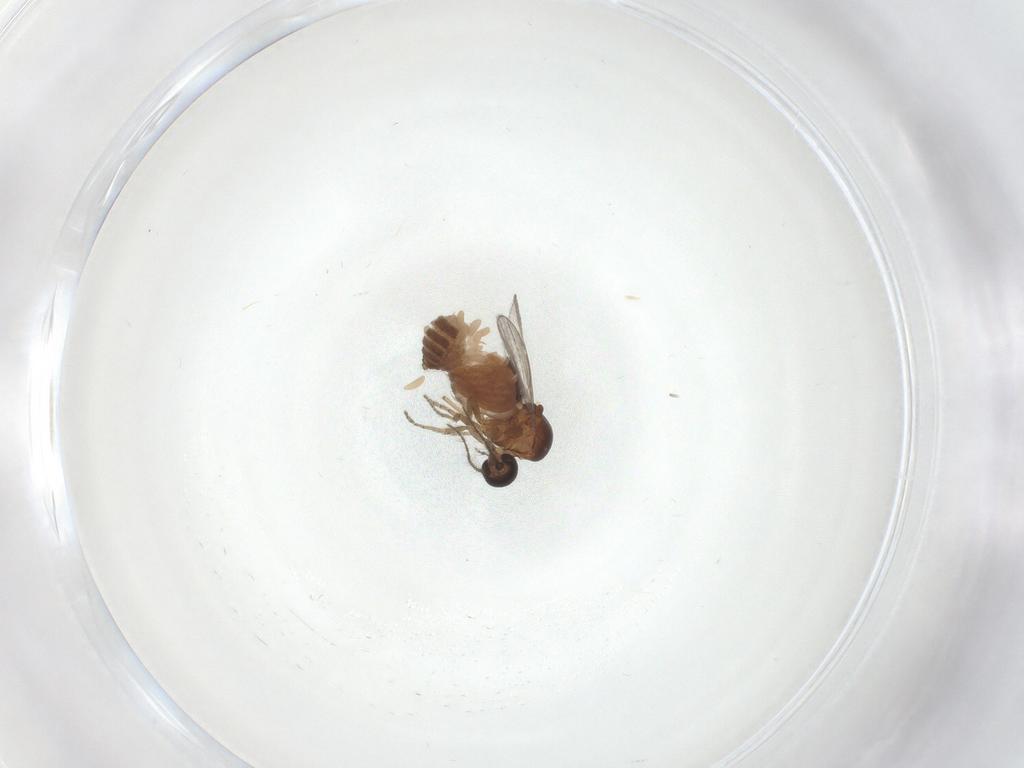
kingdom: Animalia
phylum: Arthropoda
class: Insecta
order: Diptera
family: Ceratopogonidae
